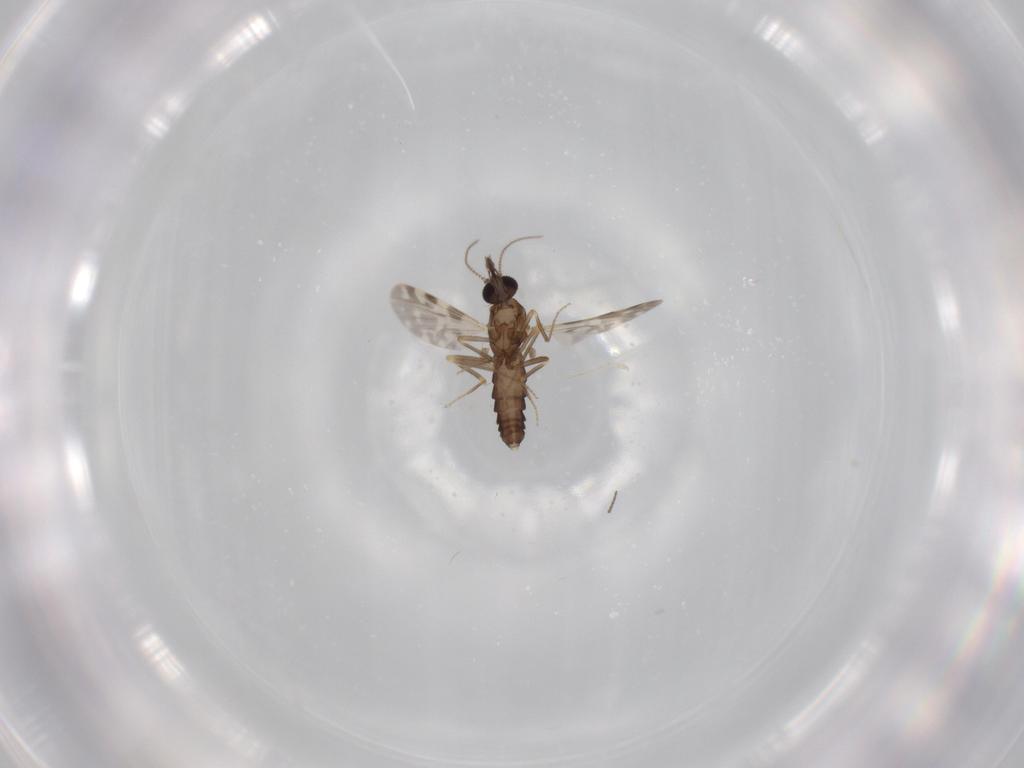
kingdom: Animalia
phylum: Arthropoda
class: Insecta
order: Diptera
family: Ceratopogonidae
